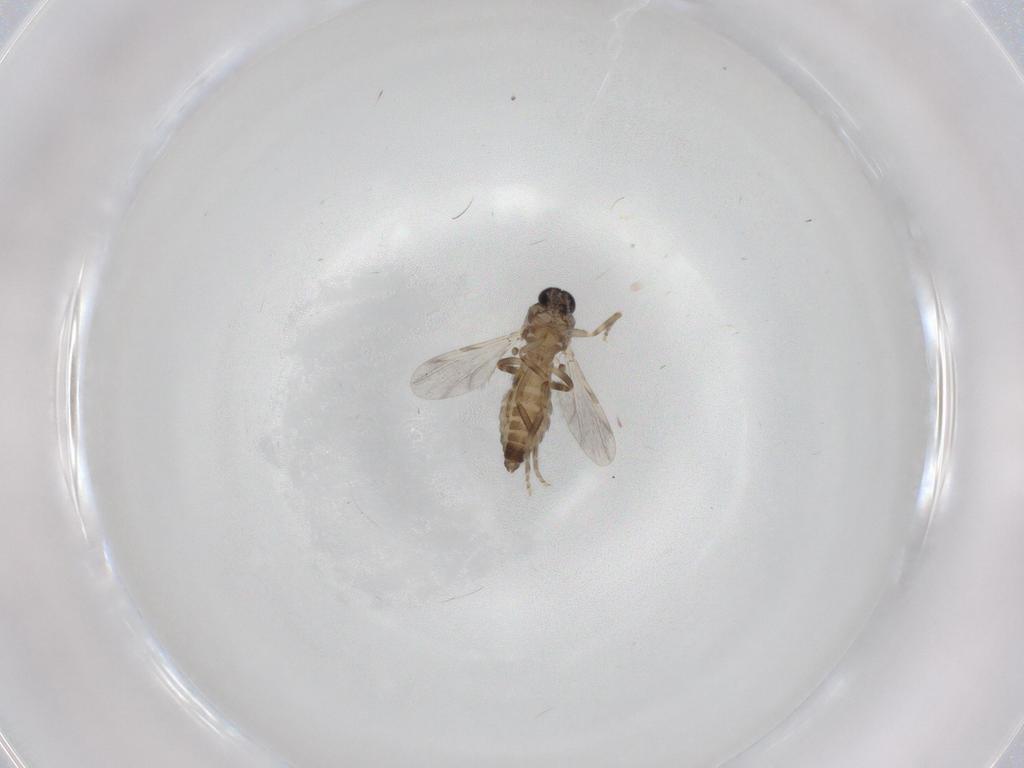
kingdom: Animalia
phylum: Arthropoda
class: Insecta
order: Diptera
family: Ceratopogonidae
